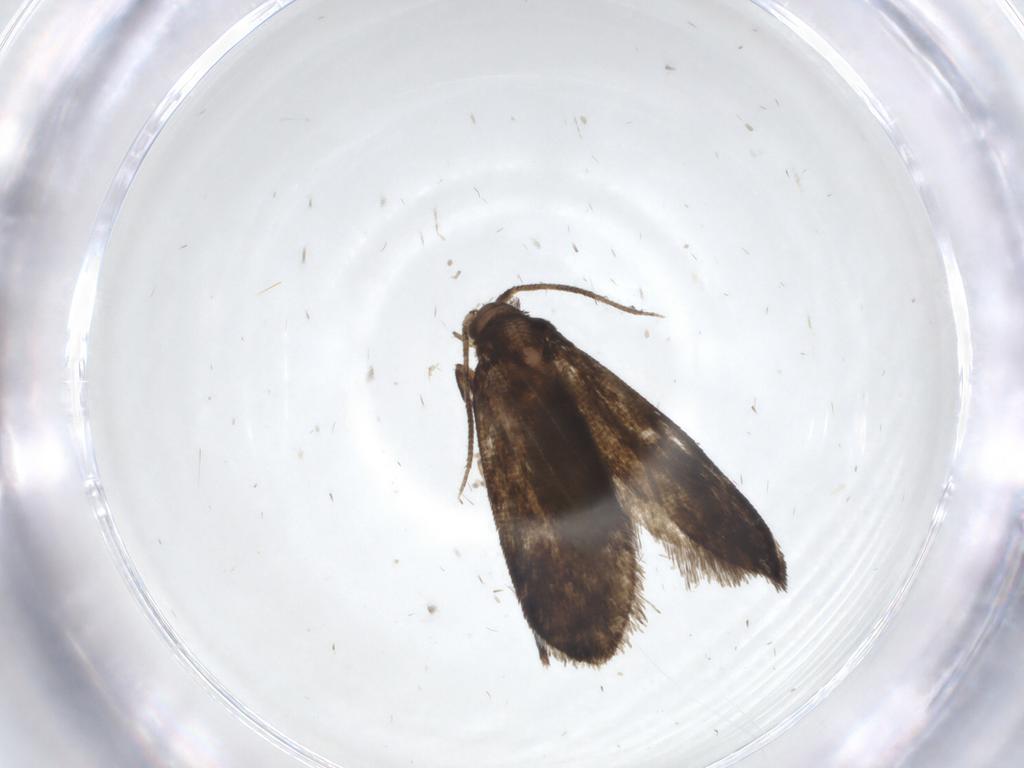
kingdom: Animalia
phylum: Arthropoda
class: Insecta
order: Lepidoptera
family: Crambidae
